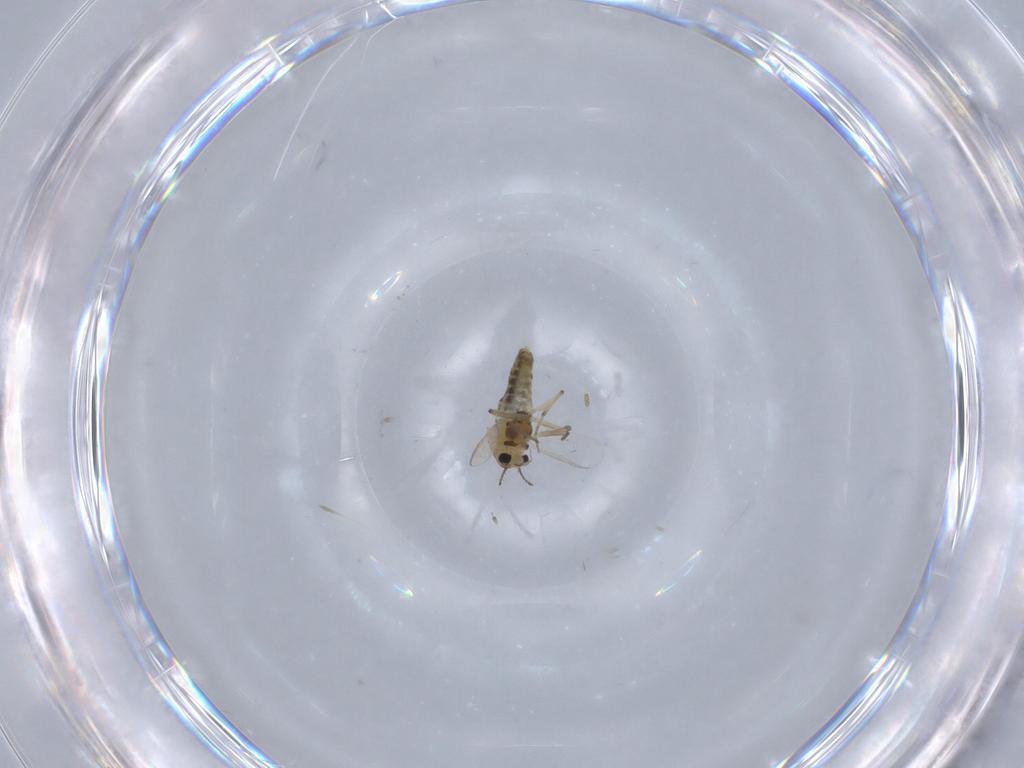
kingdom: Animalia
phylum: Arthropoda
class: Insecta
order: Diptera
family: Chironomidae
